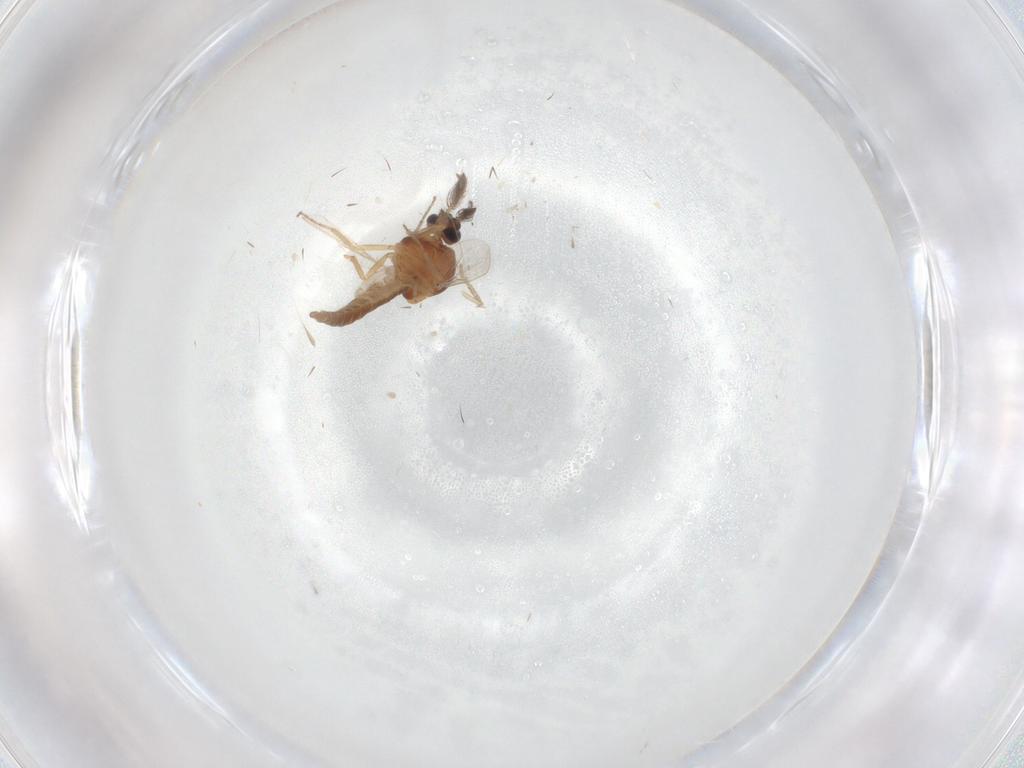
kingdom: Animalia
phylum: Arthropoda
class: Insecta
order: Diptera
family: Ceratopogonidae
